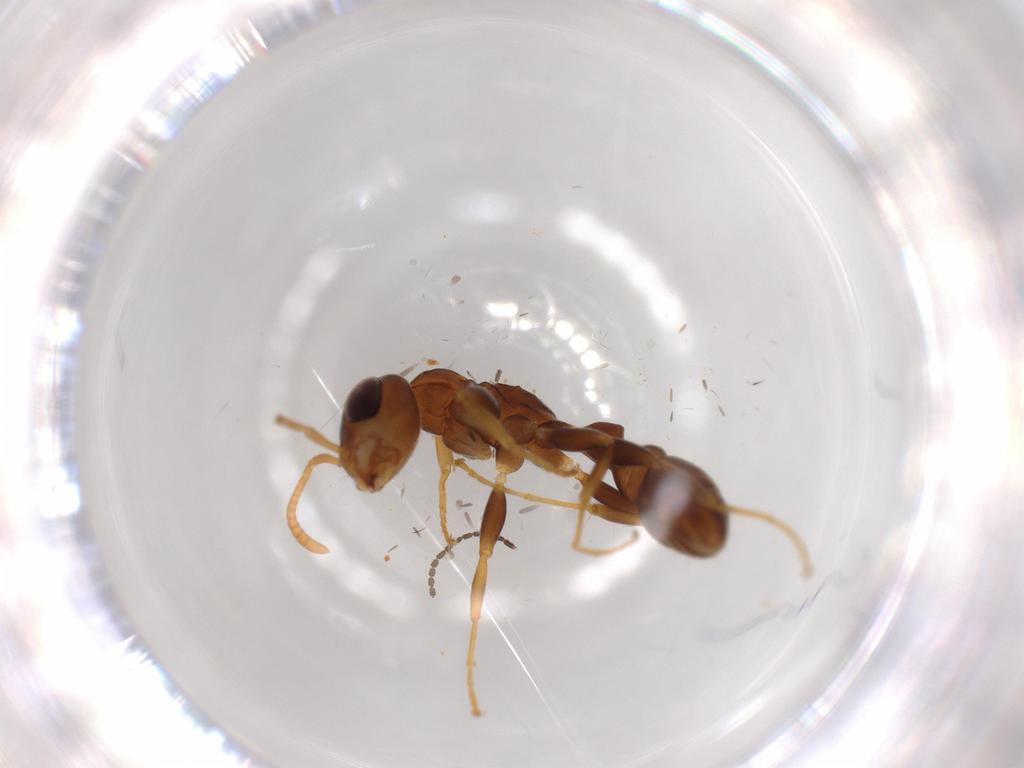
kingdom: Animalia
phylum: Arthropoda
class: Insecta
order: Hymenoptera
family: Formicidae
